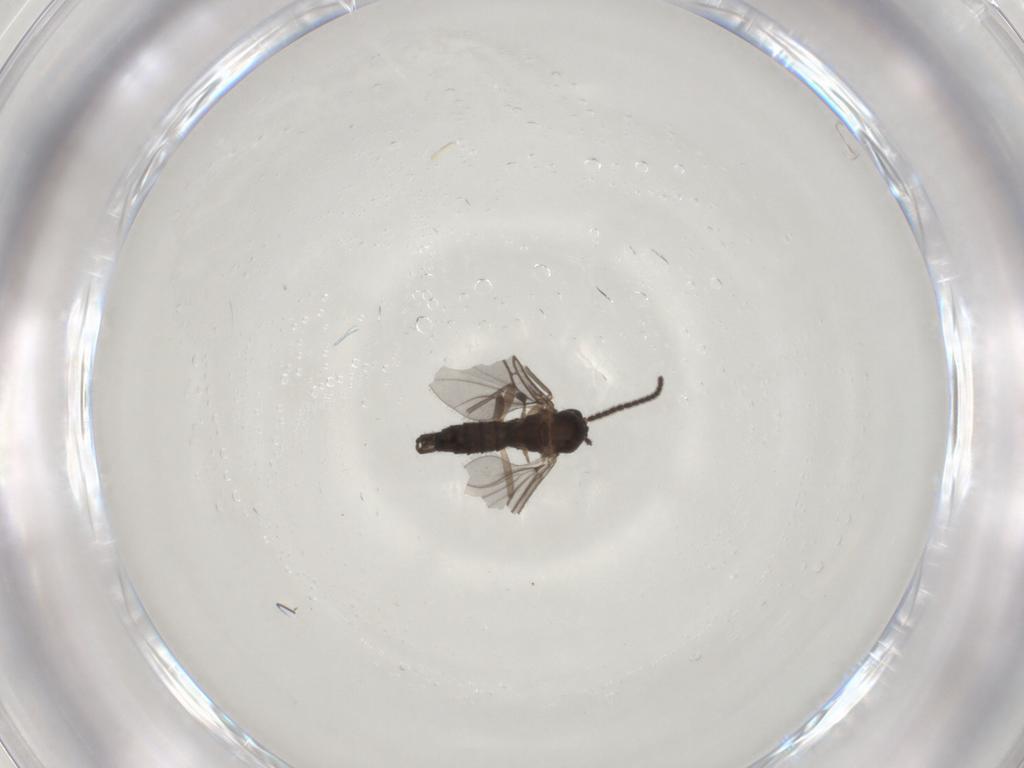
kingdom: Animalia
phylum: Arthropoda
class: Insecta
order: Diptera
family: Sciaridae
